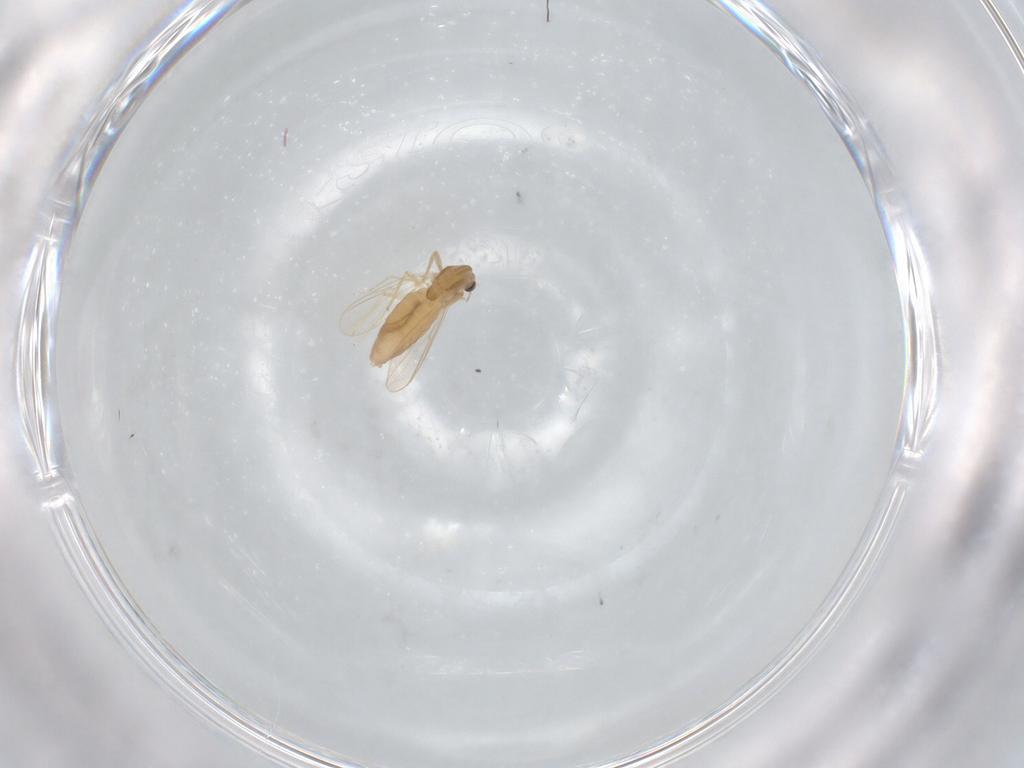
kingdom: Animalia
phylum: Arthropoda
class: Insecta
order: Diptera
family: Chironomidae
